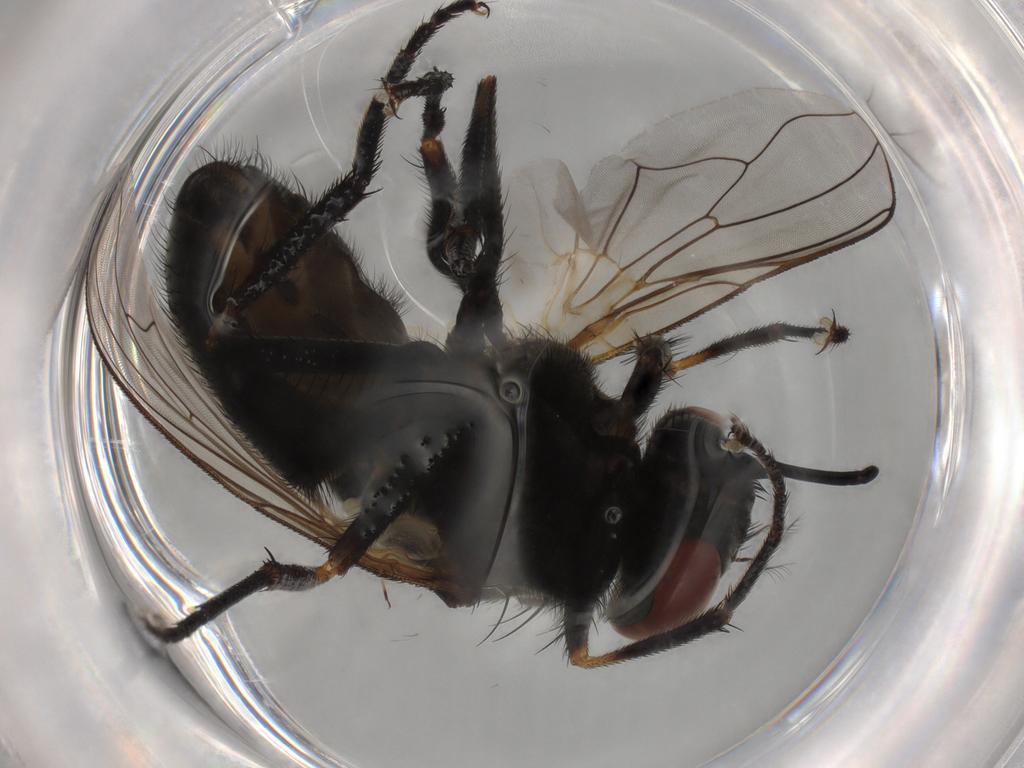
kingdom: Animalia
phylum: Arthropoda
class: Insecta
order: Diptera
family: Muscidae
